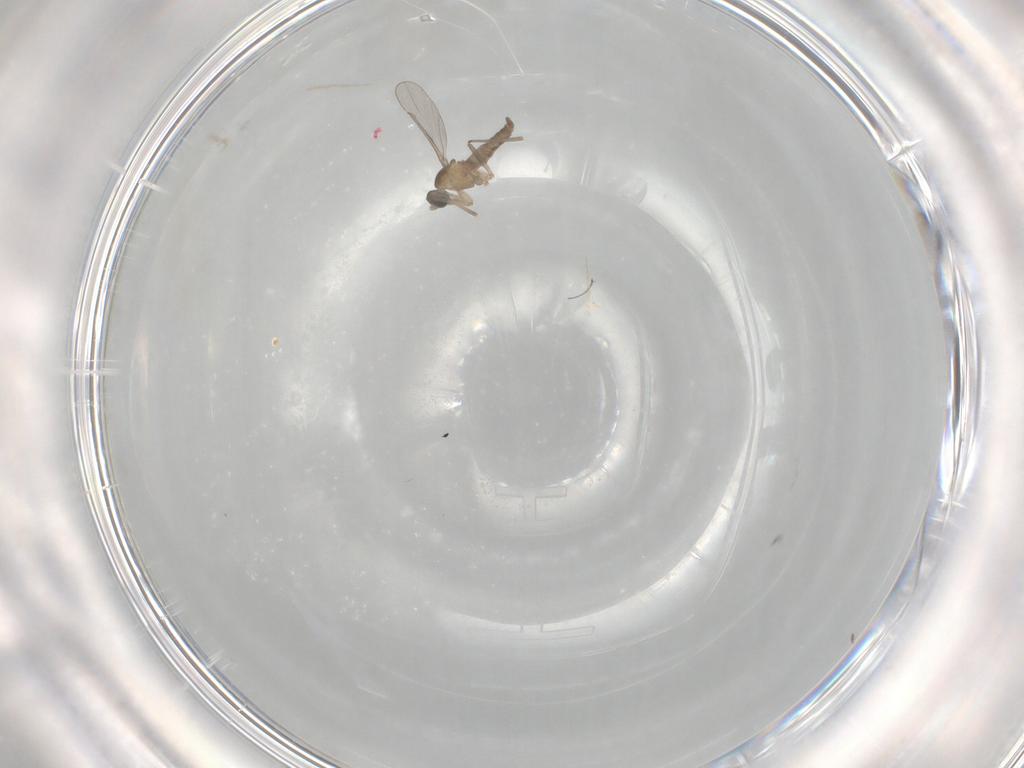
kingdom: Animalia
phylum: Arthropoda
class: Insecta
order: Diptera
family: Cecidomyiidae
